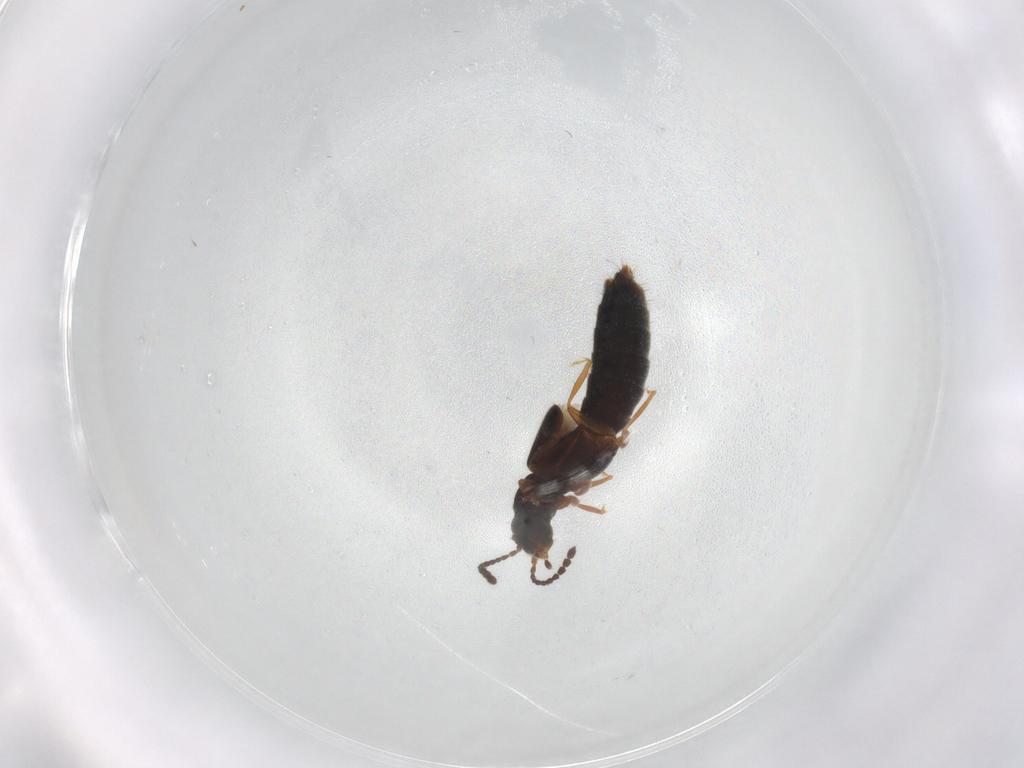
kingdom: Animalia
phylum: Arthropoda
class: Insecta
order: Coleoptera
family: Staphylinidae
